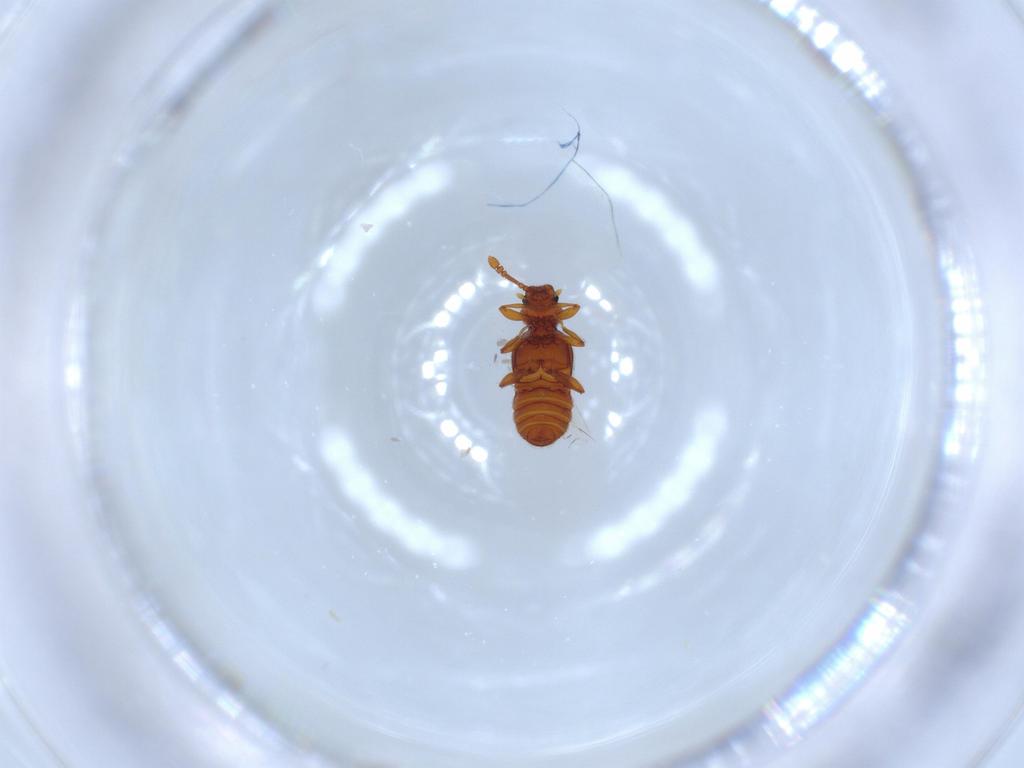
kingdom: Animalia
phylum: Arthropoda
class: Insecta
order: Coleoptera
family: Staphylinidae
